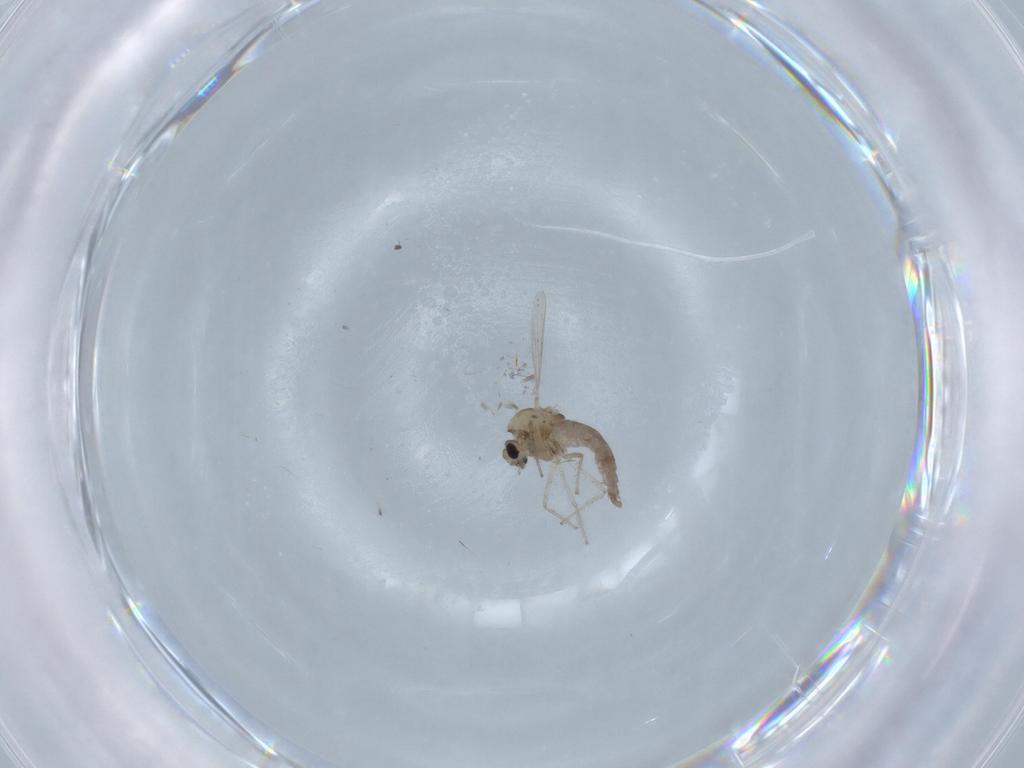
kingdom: Animalia
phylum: Arthropoda
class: Insecta
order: Diptera
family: Chironomidae
